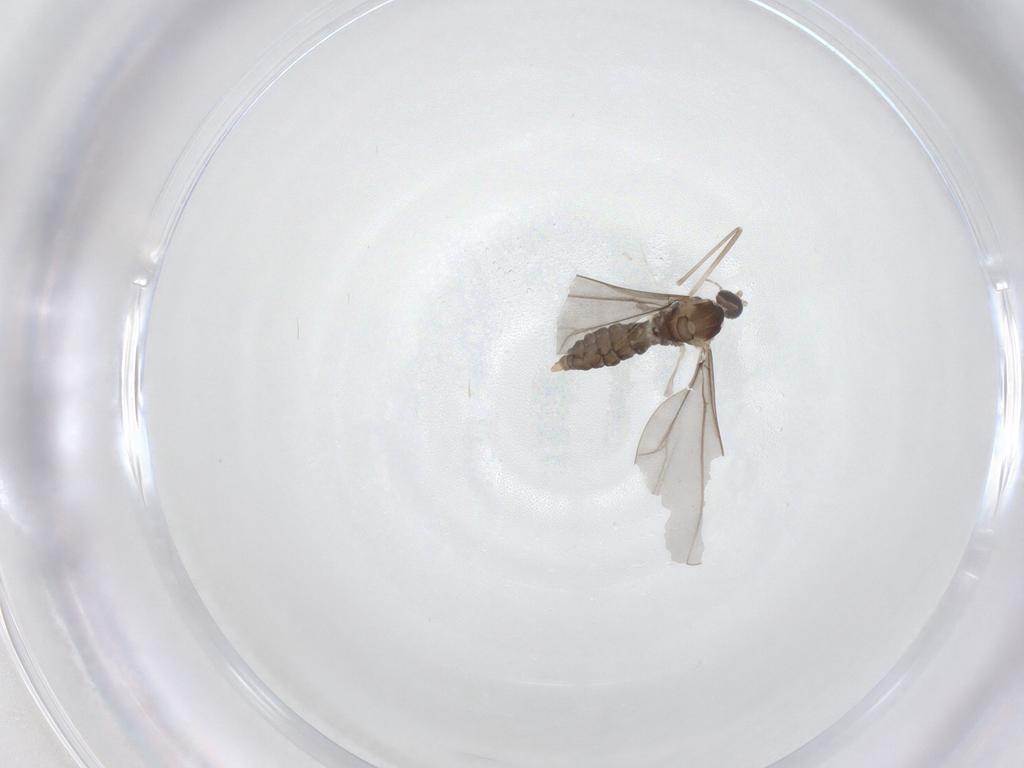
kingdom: Animalia
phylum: Arthropoda
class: Insecta
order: Diptera
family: Cecidomyiidae
